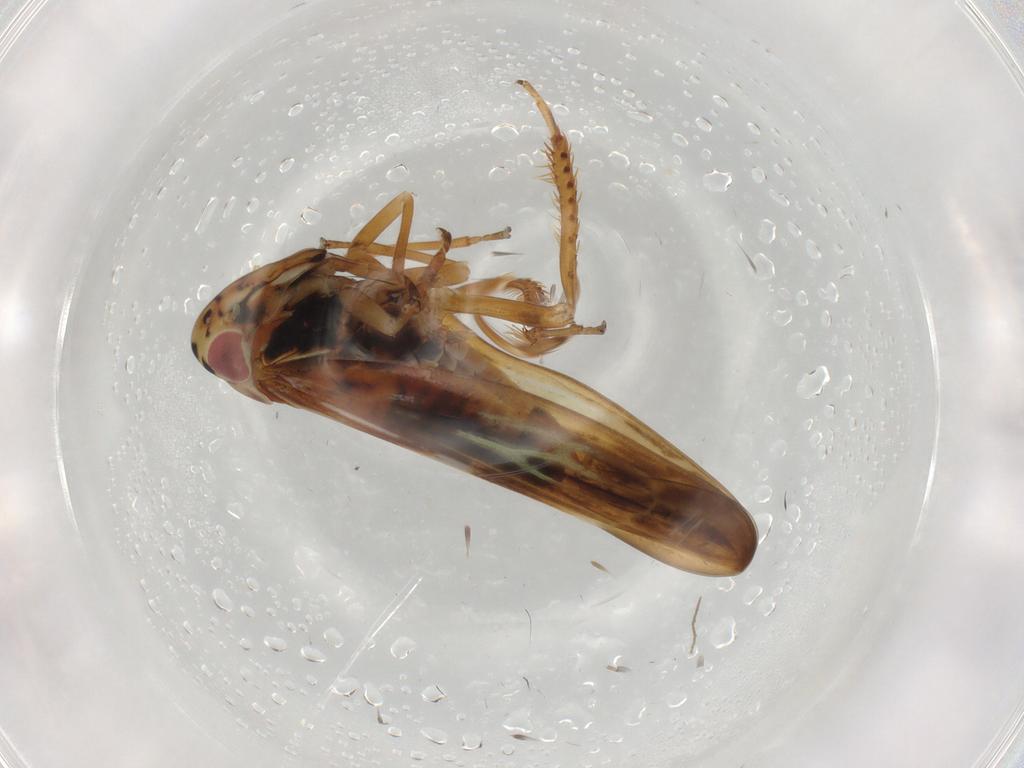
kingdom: Animalia
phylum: Arthropoda
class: Insecta
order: Hemiptera
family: Cicadellidae
